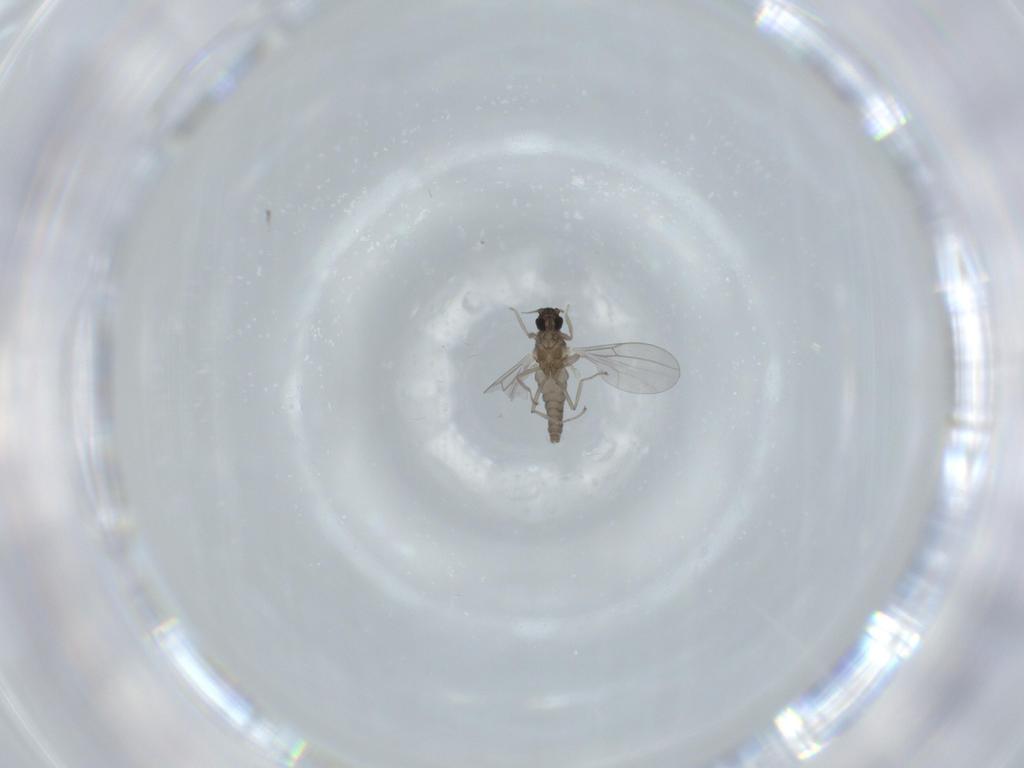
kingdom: Animalia
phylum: Arthropoda
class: Insecta
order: Diptera
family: Cecidomyiidae
